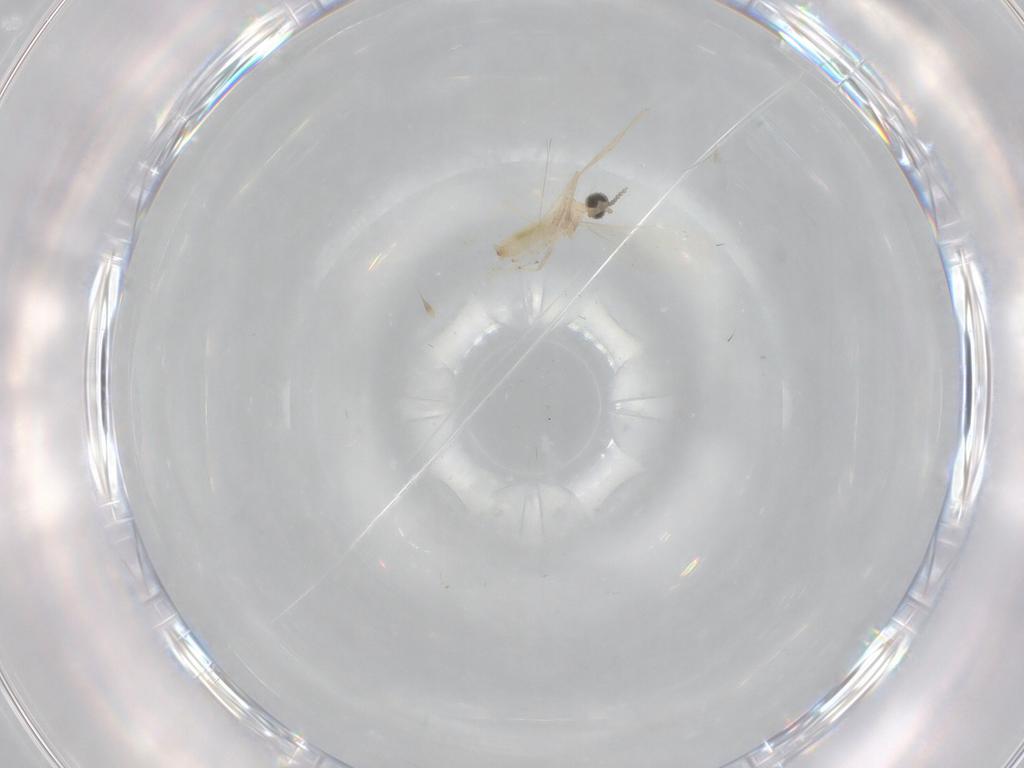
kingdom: Animalia
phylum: Arthropoda
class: Insecta
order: Diptera
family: Cecidomyiidae
